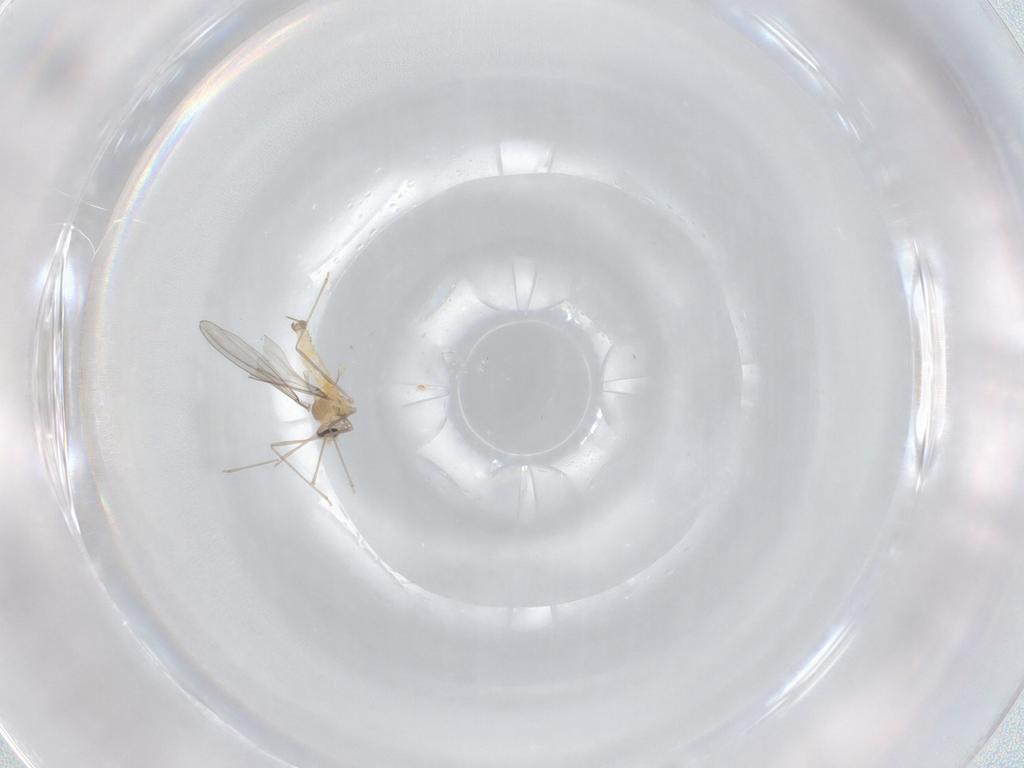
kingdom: Animalia
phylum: Arthropoda
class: Insecta
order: Diptera
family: Cecidomyiidae
